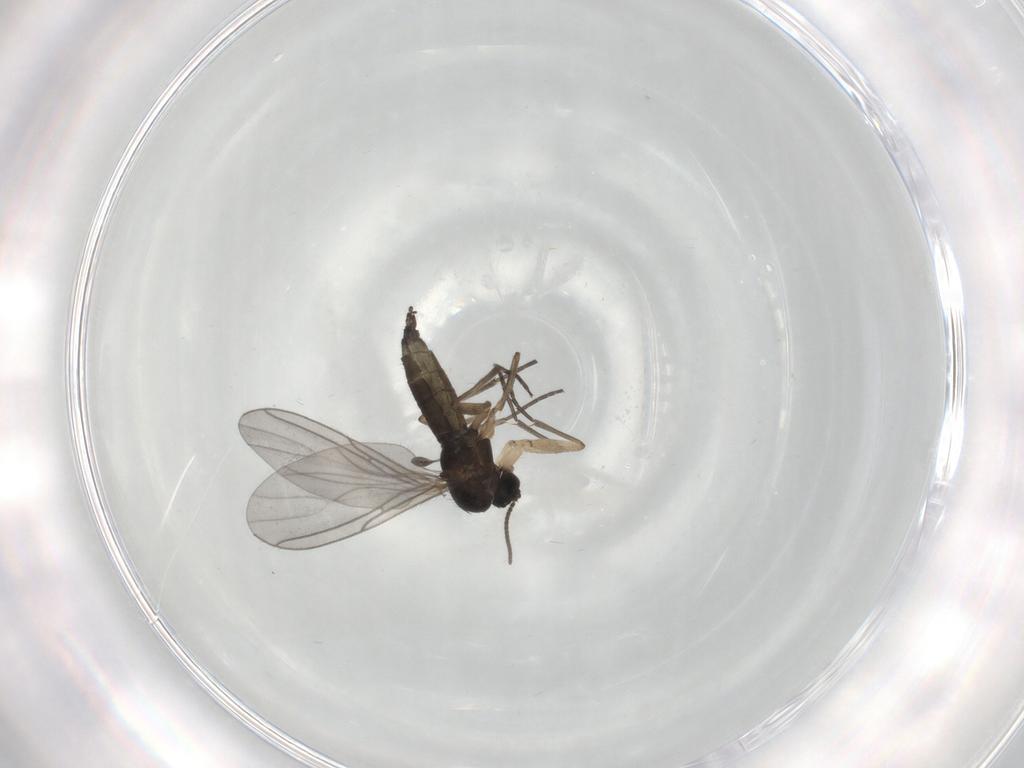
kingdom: Animalia
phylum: Arthropoda
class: Insecta
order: Diptera
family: Sciaridae
